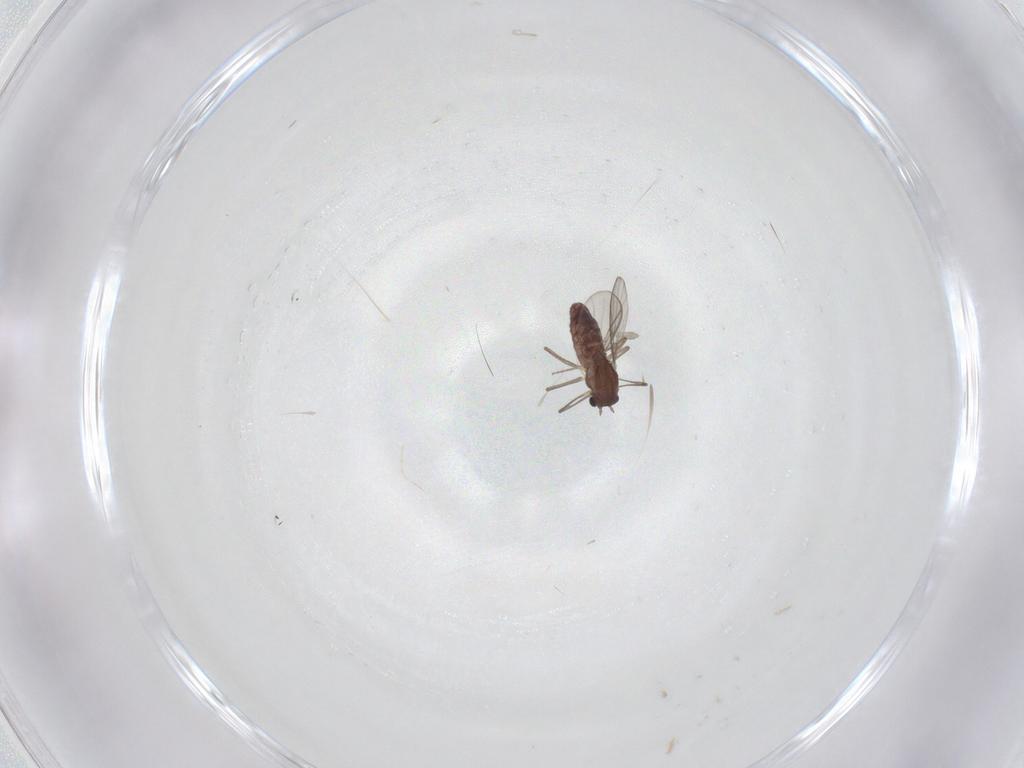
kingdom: Animalia
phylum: Arthropoda
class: Insecta
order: Diptera
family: Chironomidae
